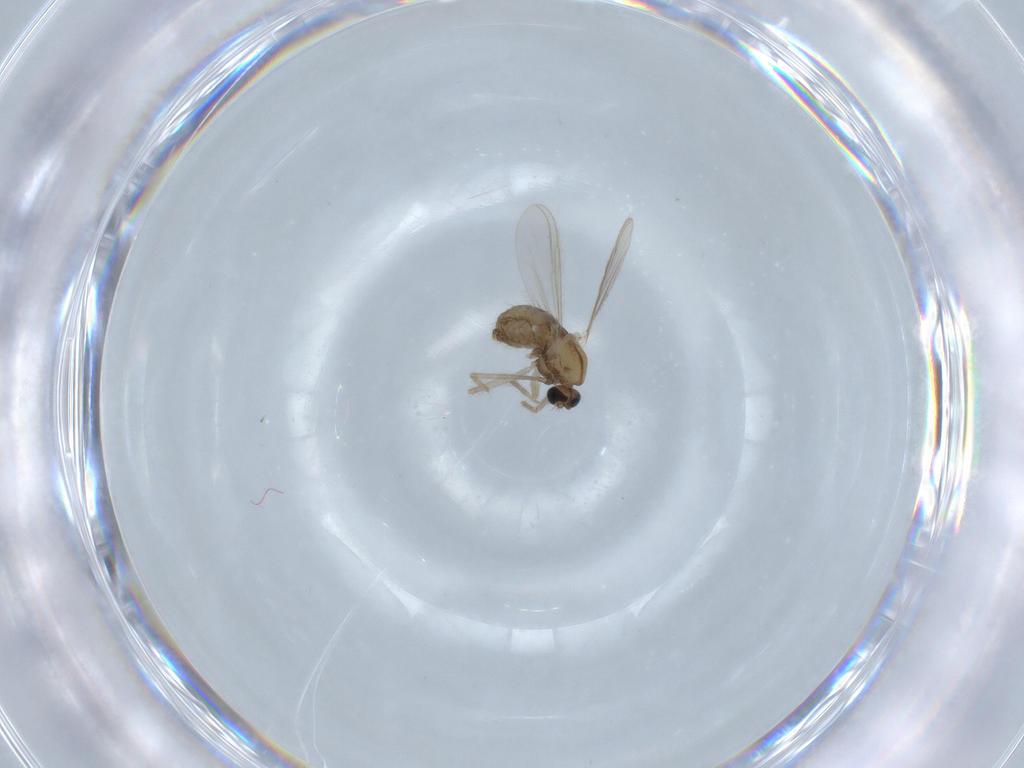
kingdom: Animalia
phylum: Arthropoda
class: Insecta
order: Diptera
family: Chironomidae
